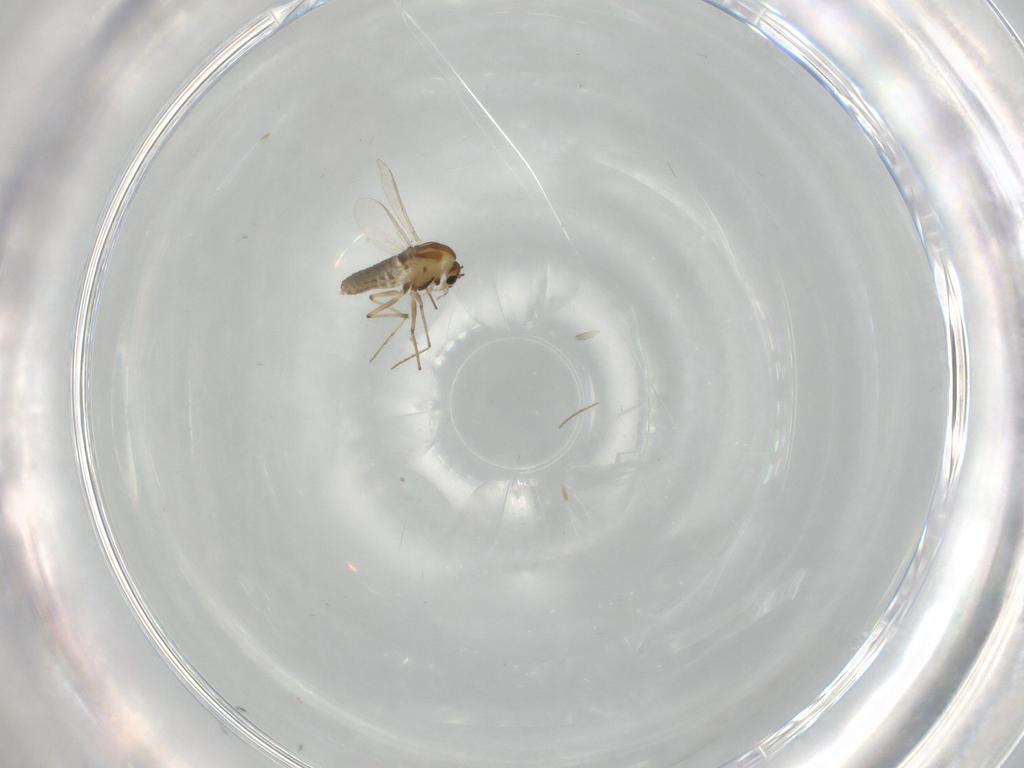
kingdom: Animalia
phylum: Arthropoda
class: Insecta
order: Diptera
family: Chironomidae
